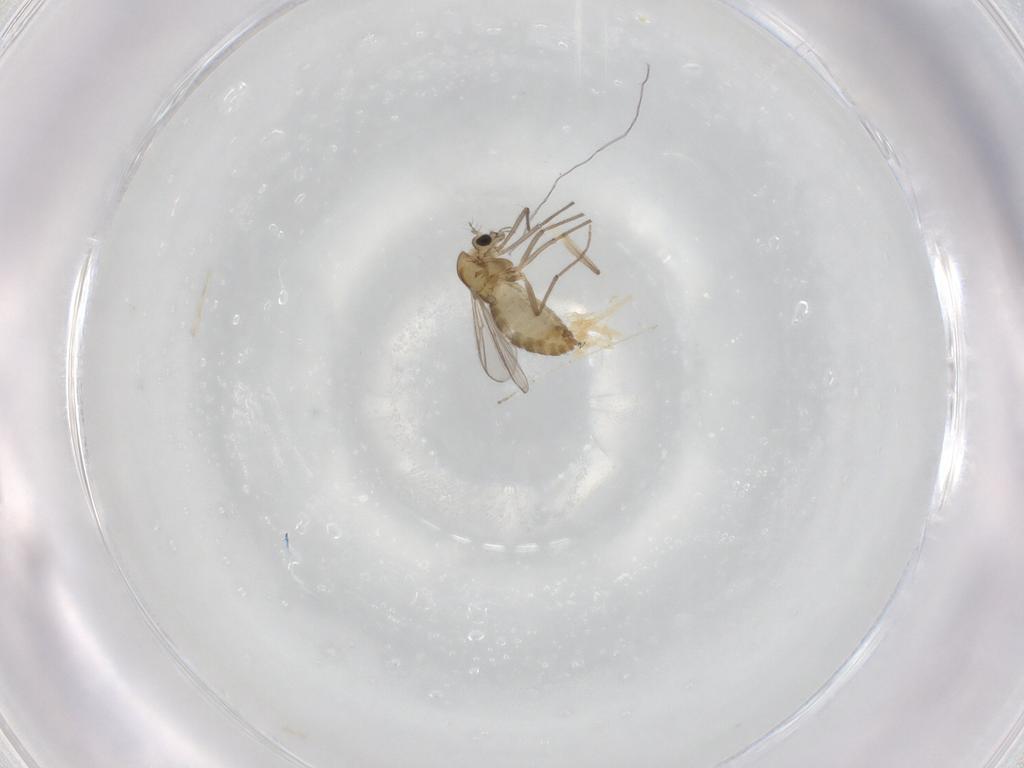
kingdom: Animalia
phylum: Arthropoda
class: Insecta
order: Diptera
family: Chironomidae
